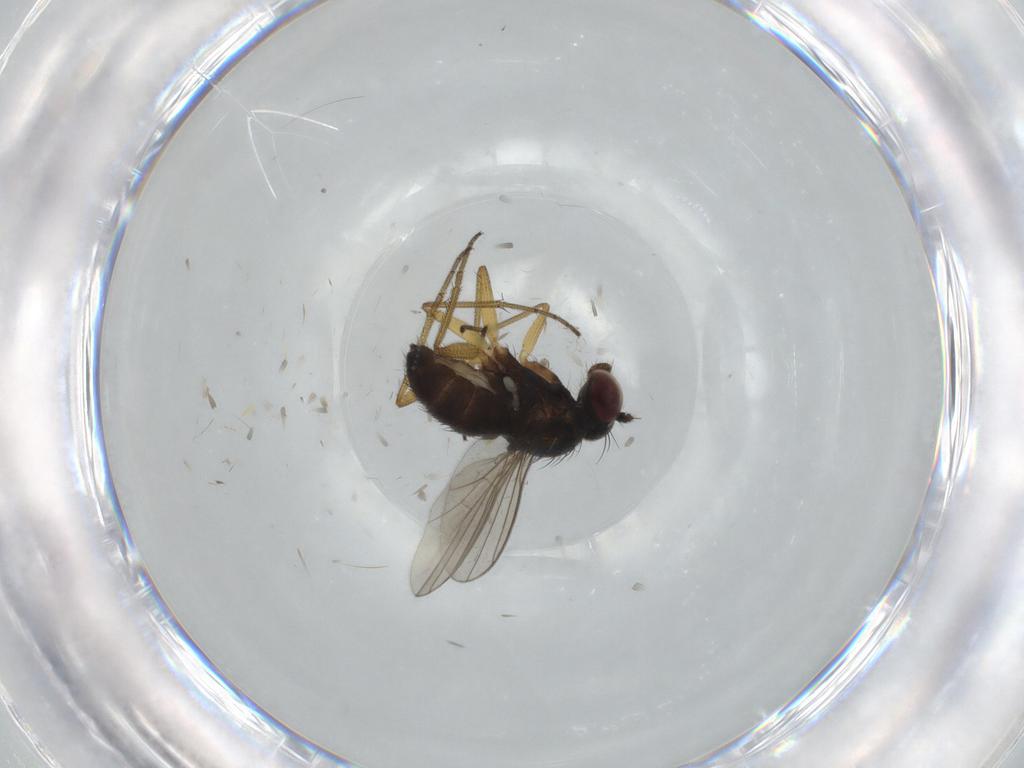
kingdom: Animalia
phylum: Arthropoda
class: Insecta
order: Diptera
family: Dolichopodidae
